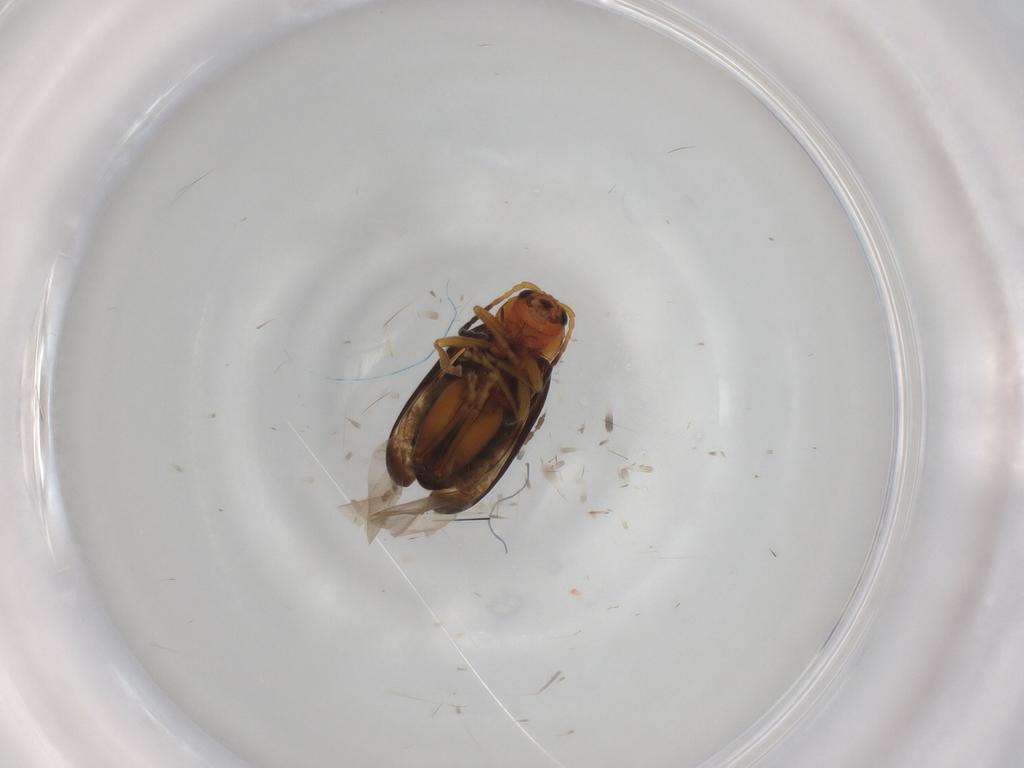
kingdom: Animalia
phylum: Arthropoda
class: Insecta
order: Coleoptera
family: Chrysomelidae
